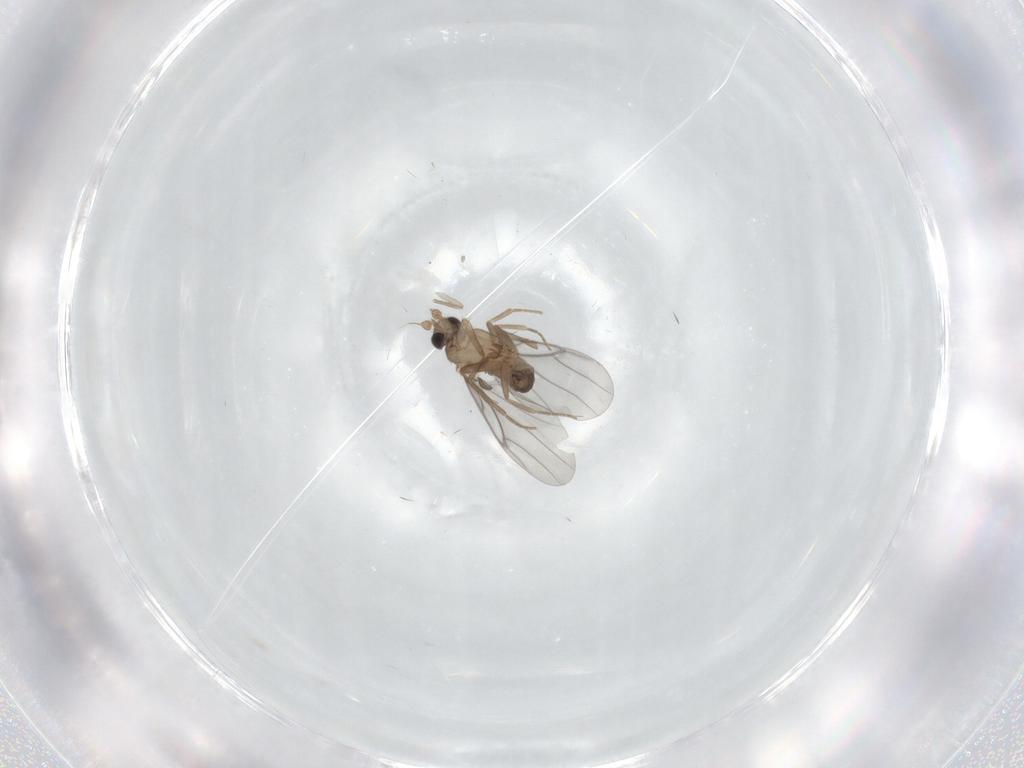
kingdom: Animalia
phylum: Arthropoda
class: Insecta
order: Diptera
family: Cecidomyiidae
